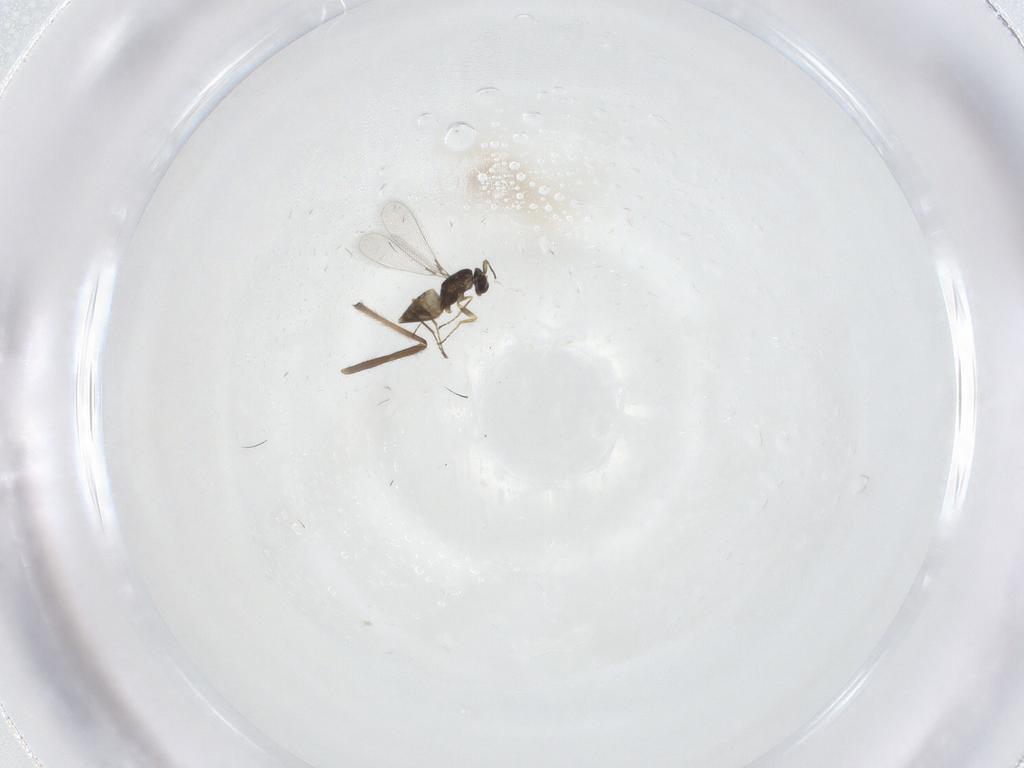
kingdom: Animalia
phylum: Arthropoda
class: Insecta
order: Hymenoptera
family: Mymaridae
